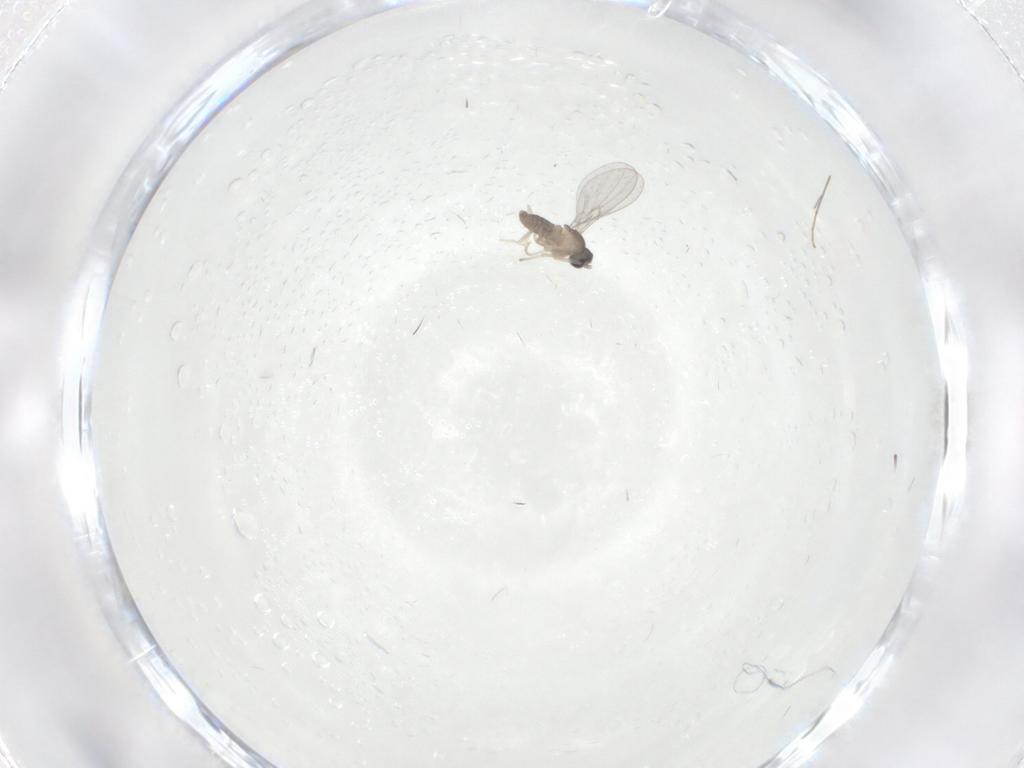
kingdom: Animalia
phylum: Arthropoda
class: Insecta
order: Diptera
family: Cecidomyiidae
